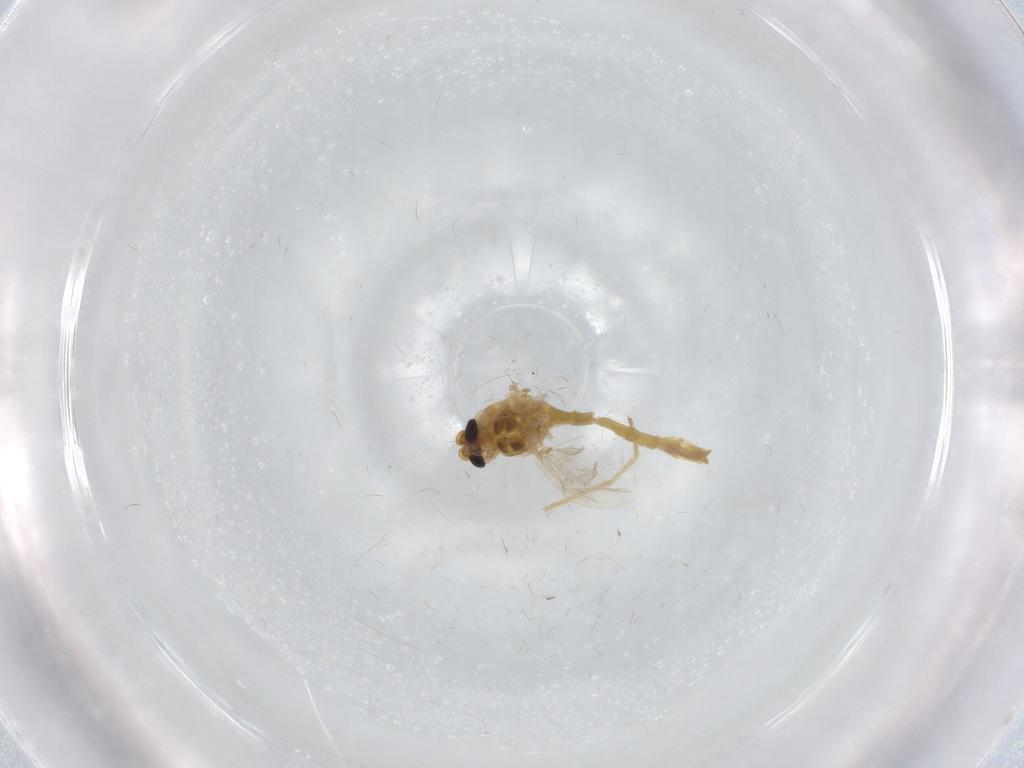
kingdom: Animalia
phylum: Arthropoda
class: Insecta
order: Diptera
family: Chironomidae
